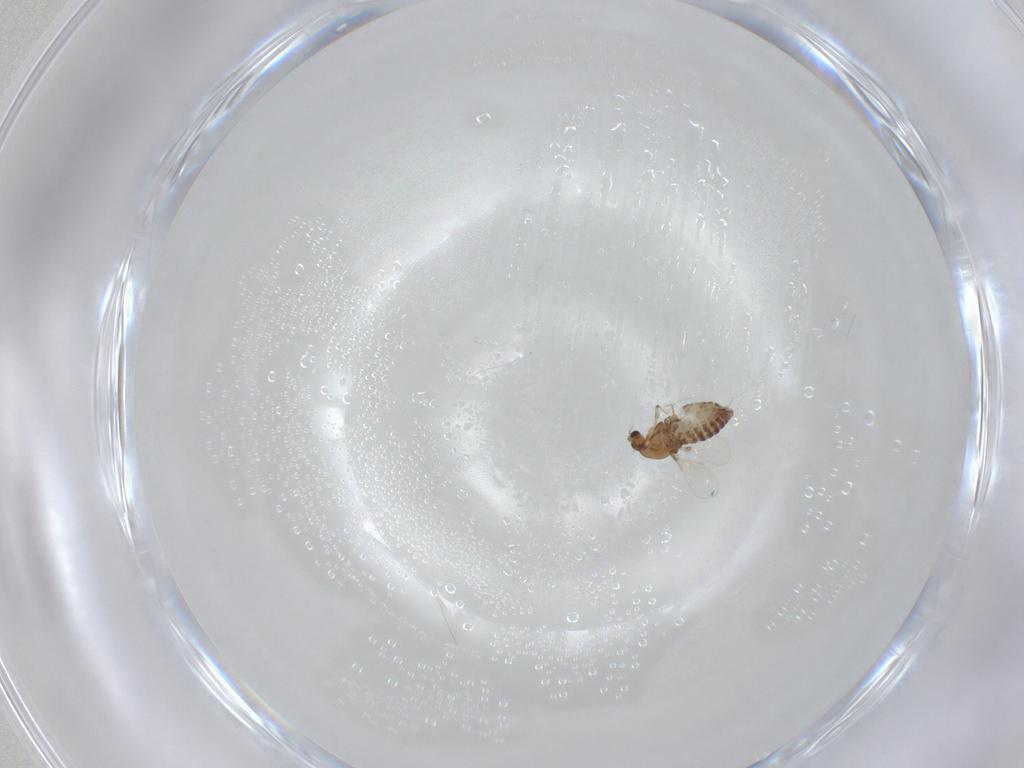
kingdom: Animalia
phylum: Arthropoda
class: Insecta
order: Diptera
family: Chironomidae
